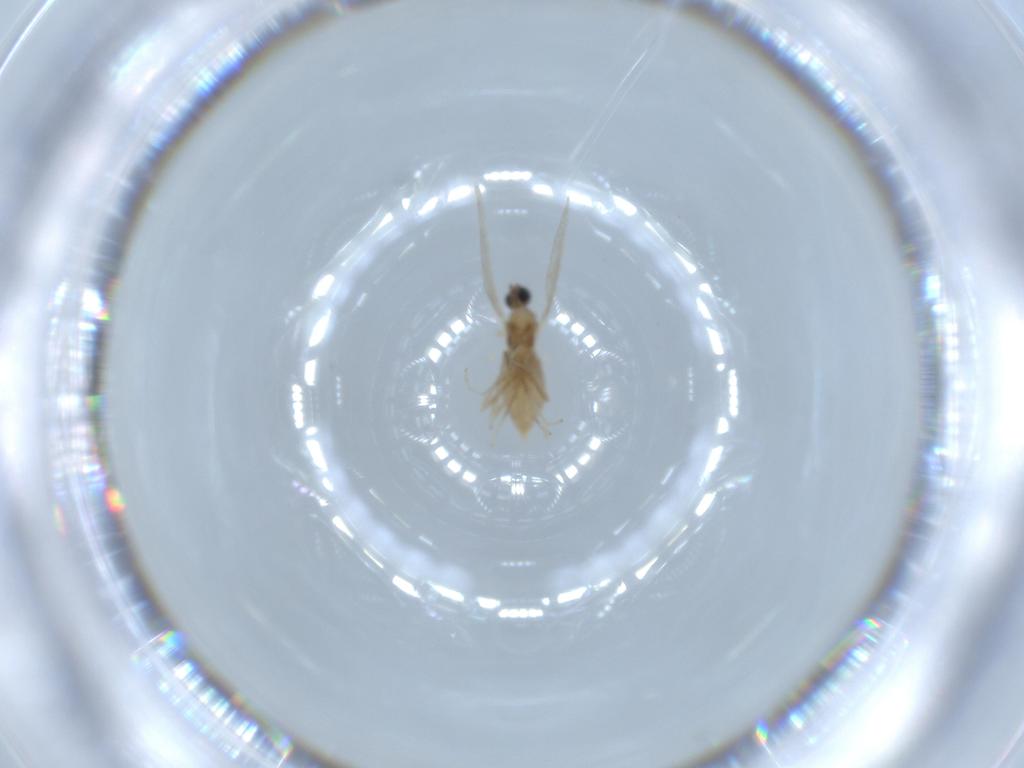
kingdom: Animalia
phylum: Arthropoda
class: Insecta
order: Diptera
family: Cecidomyiidae
